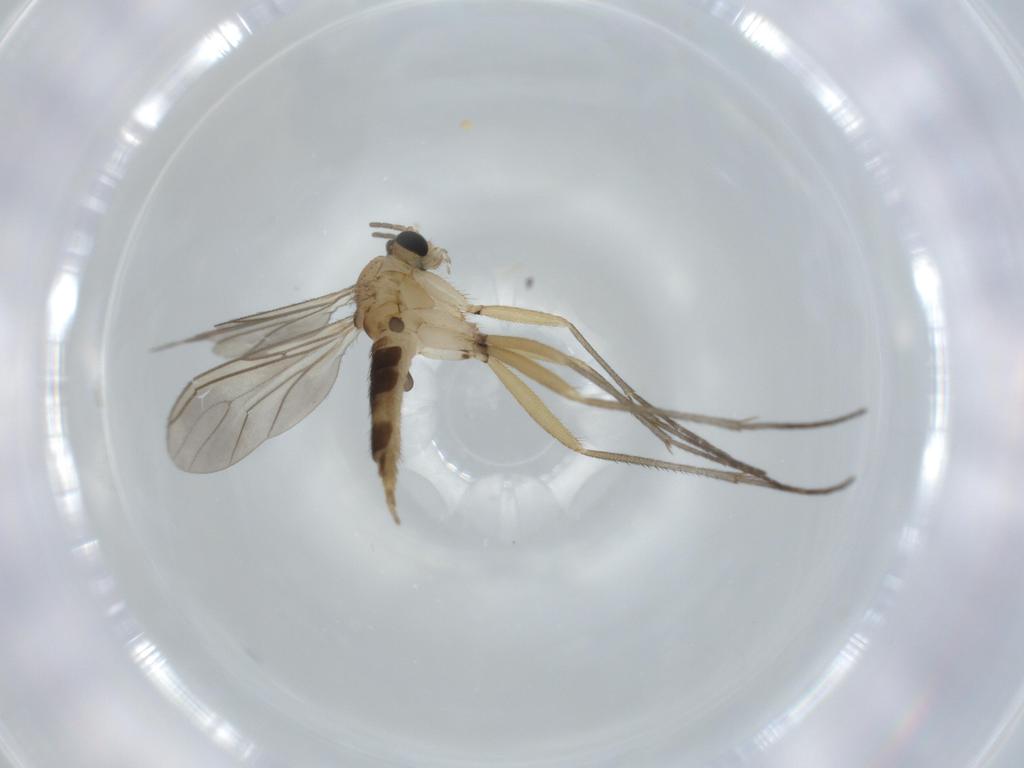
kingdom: Animalia
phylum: Arthropoda
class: Insecta
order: Diptera
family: Sciaridae
